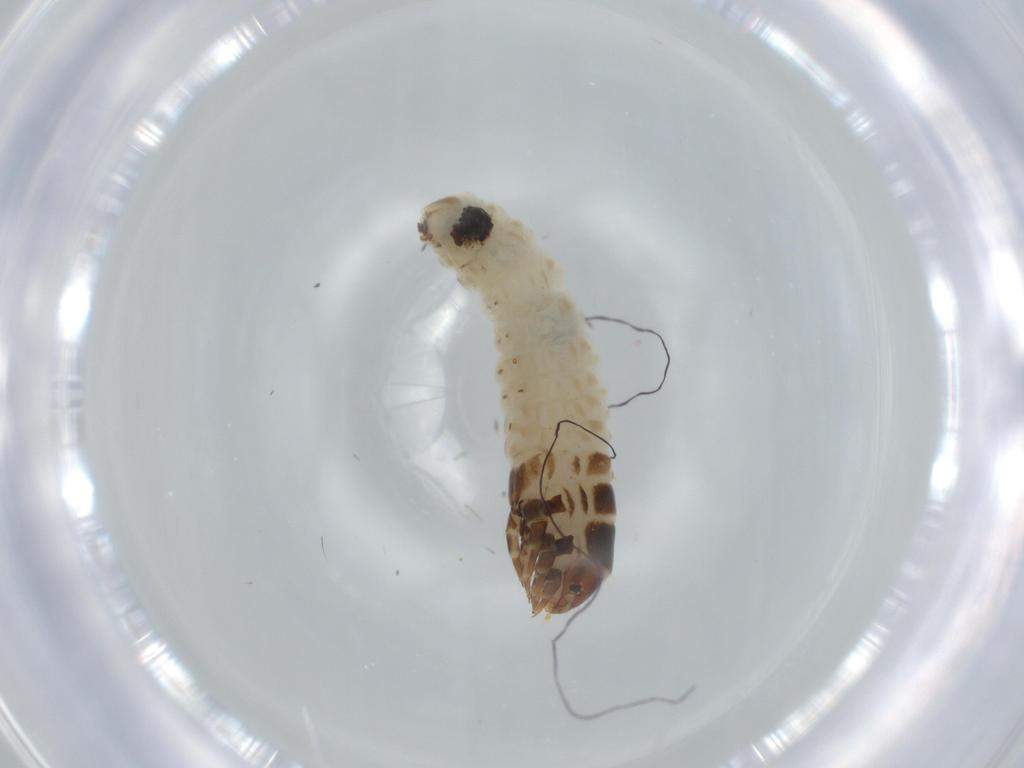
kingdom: Animalia
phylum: Arthropoda
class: Insecta
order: Lepidoptera
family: Psychidae
